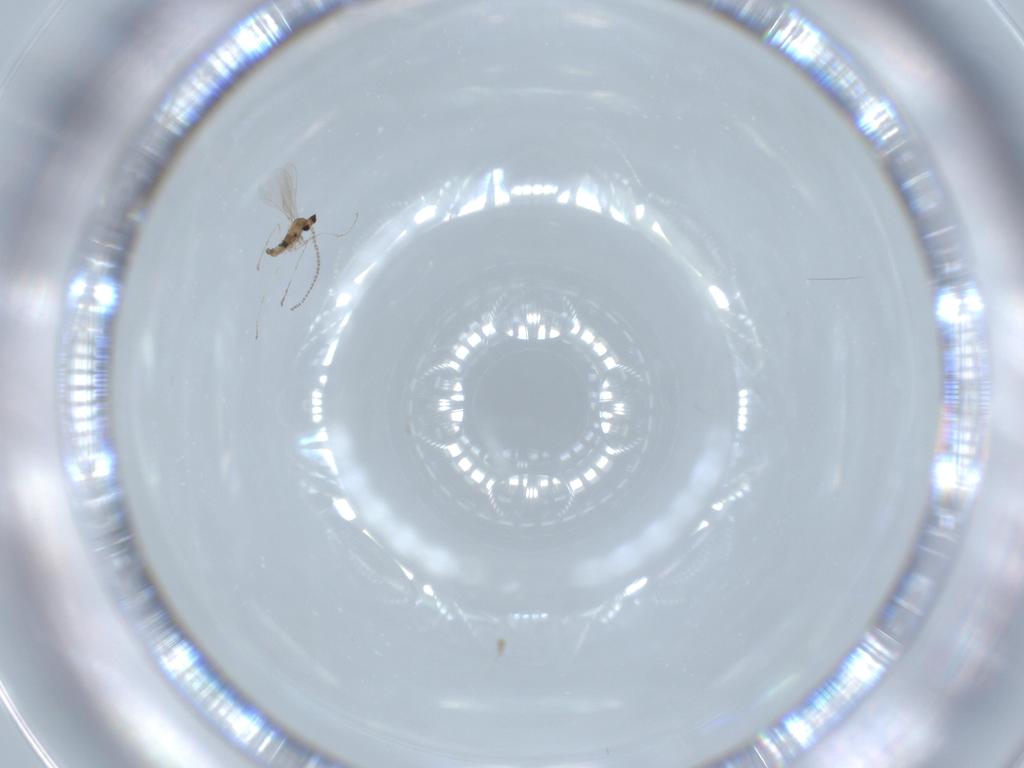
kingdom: Animalia
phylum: Arthropoda
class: Insecta
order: Diptera
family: Cecidomyiidae
